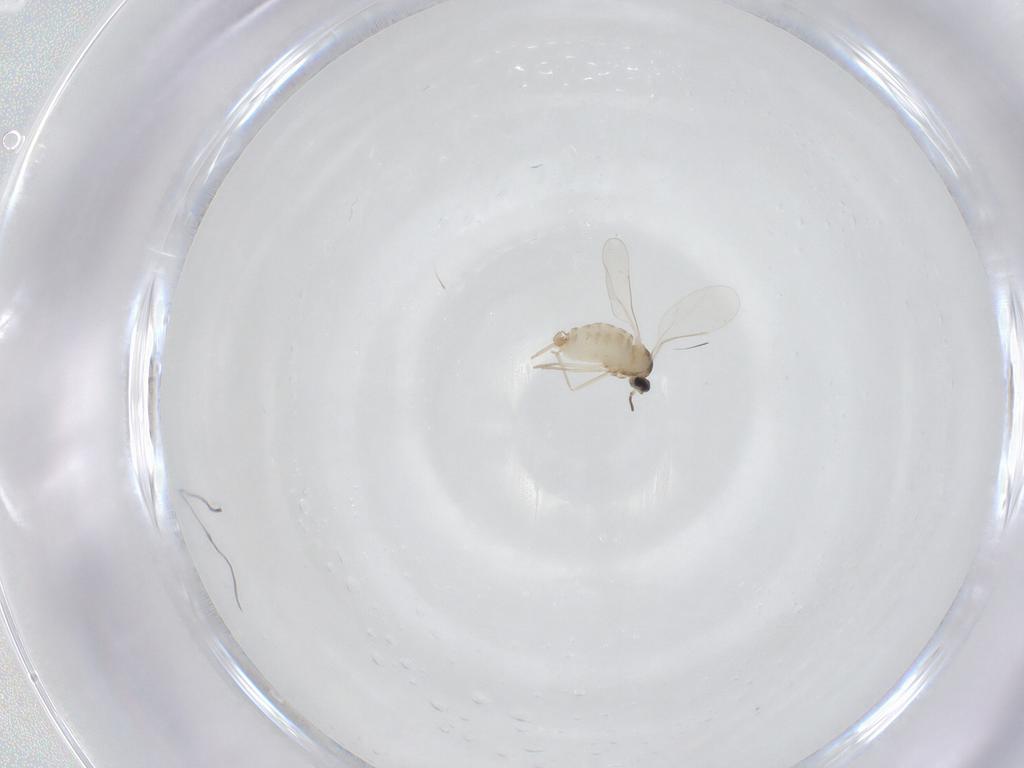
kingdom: Animalia
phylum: Arthropoda
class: Insecta
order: Diptera
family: Cecidomyiidae
